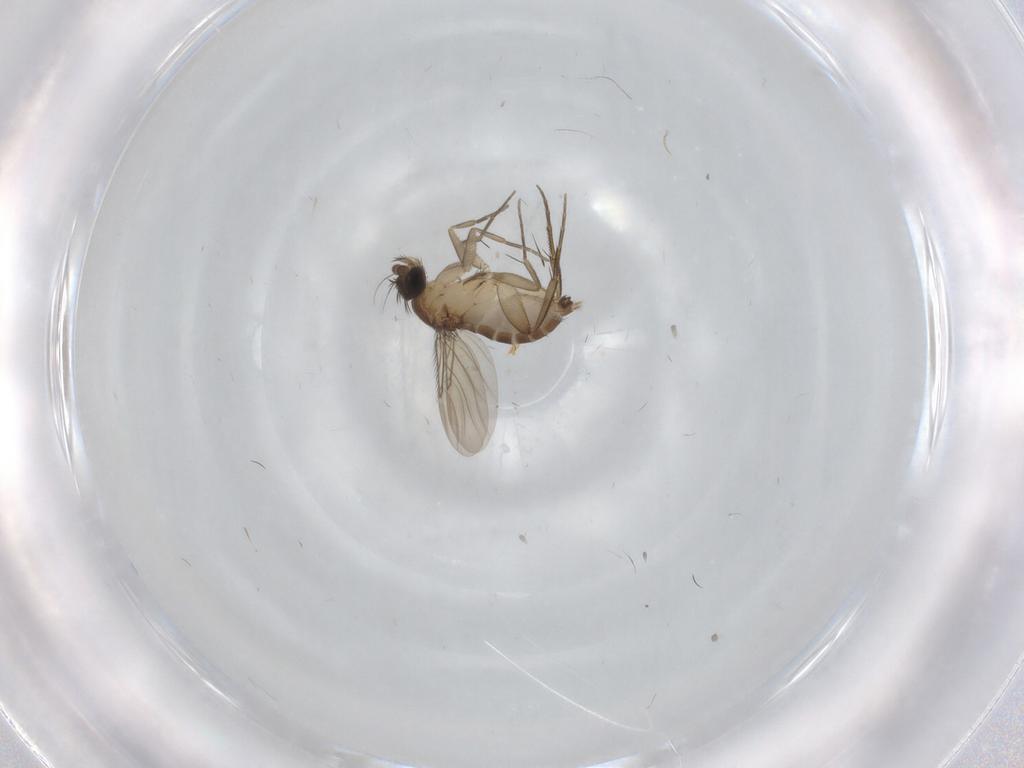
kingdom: Animalia
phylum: Arthropoda
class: Insecta
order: Diptera
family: Phoridae
